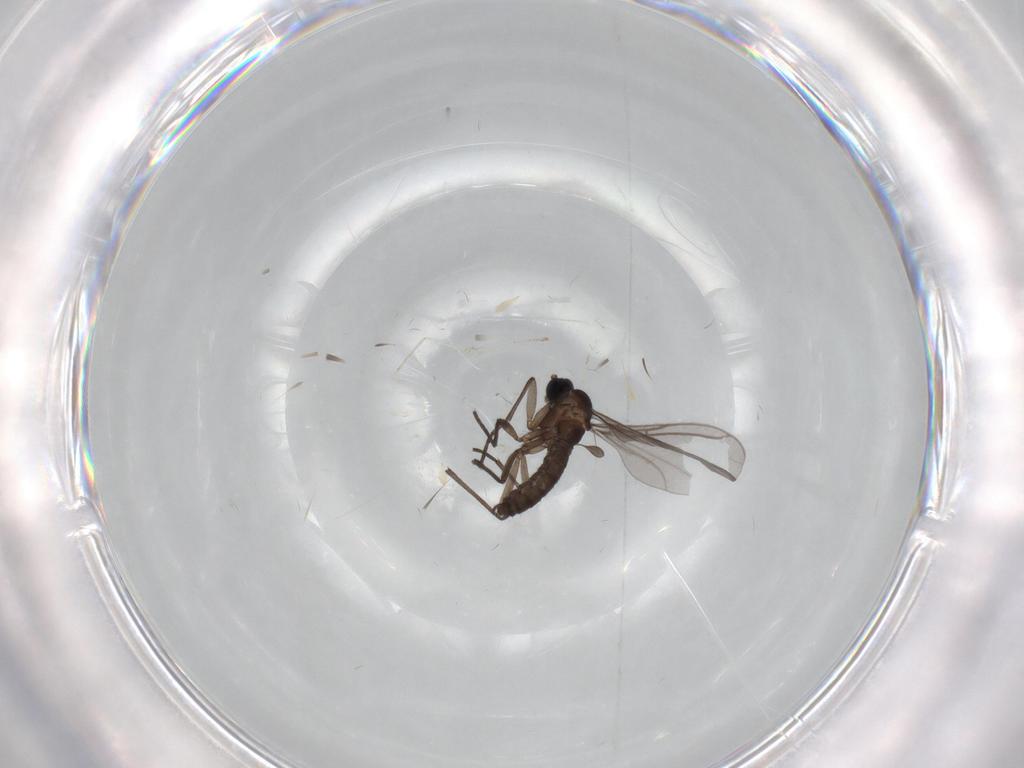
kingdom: Animalia
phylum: Arthropoda
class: Insecta
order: Diptera
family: Cecidomyiidae
